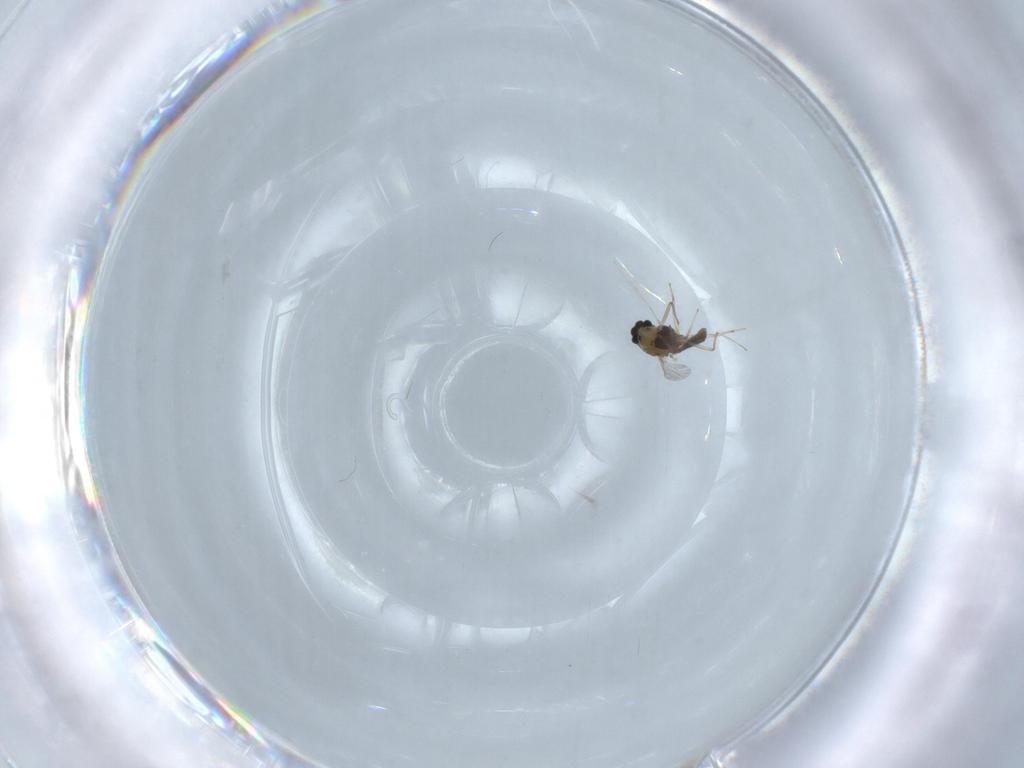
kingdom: Animalia
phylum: Arthropoda
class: Insecta
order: Diptera
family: Chironomidae
